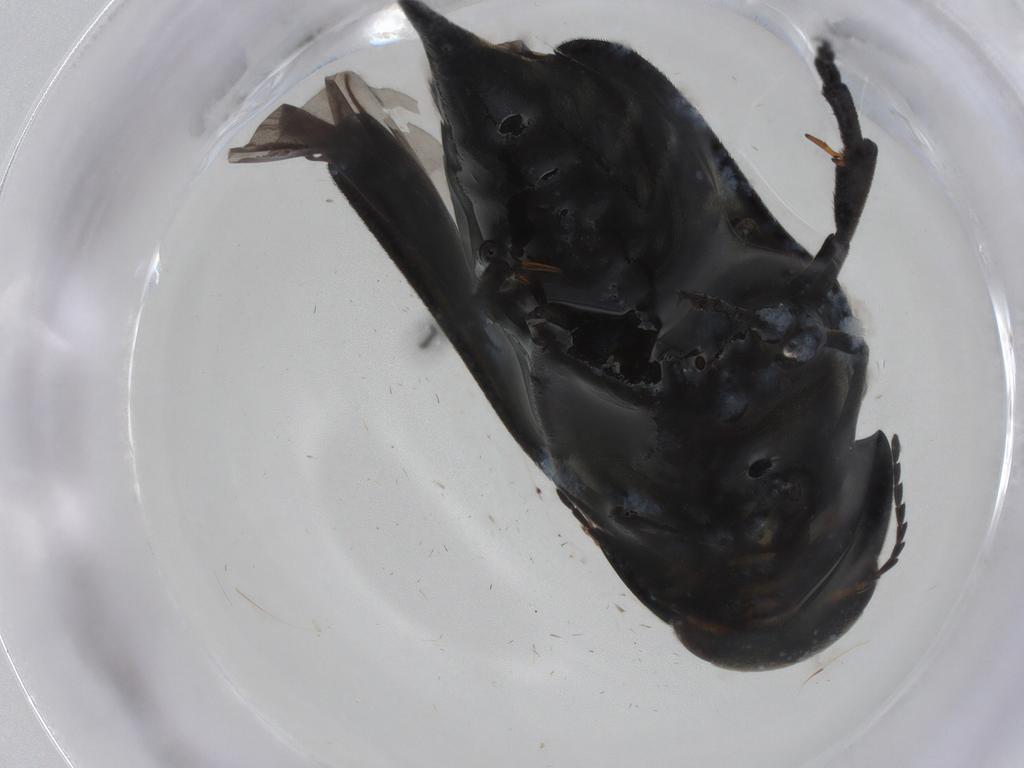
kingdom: Animalia
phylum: Arthropoda
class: Insecta
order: Coleoptera
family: Mordellidae
